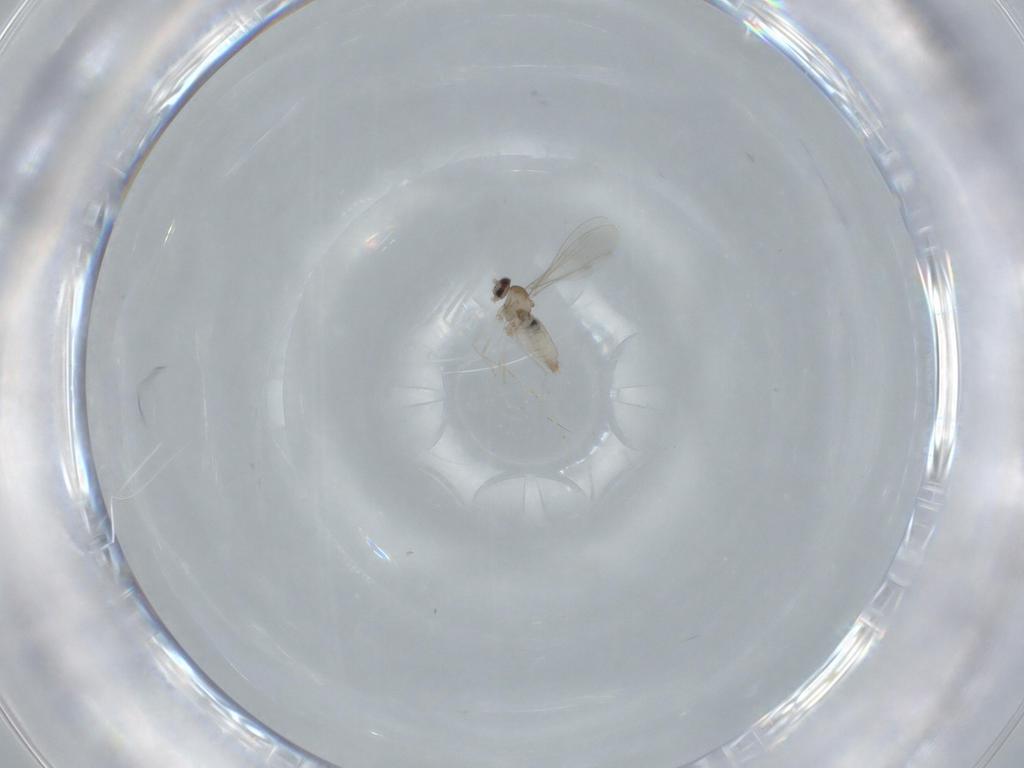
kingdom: Animalia
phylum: Arthropoda
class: Insecta
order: Diptera
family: Cecidomyiidae
